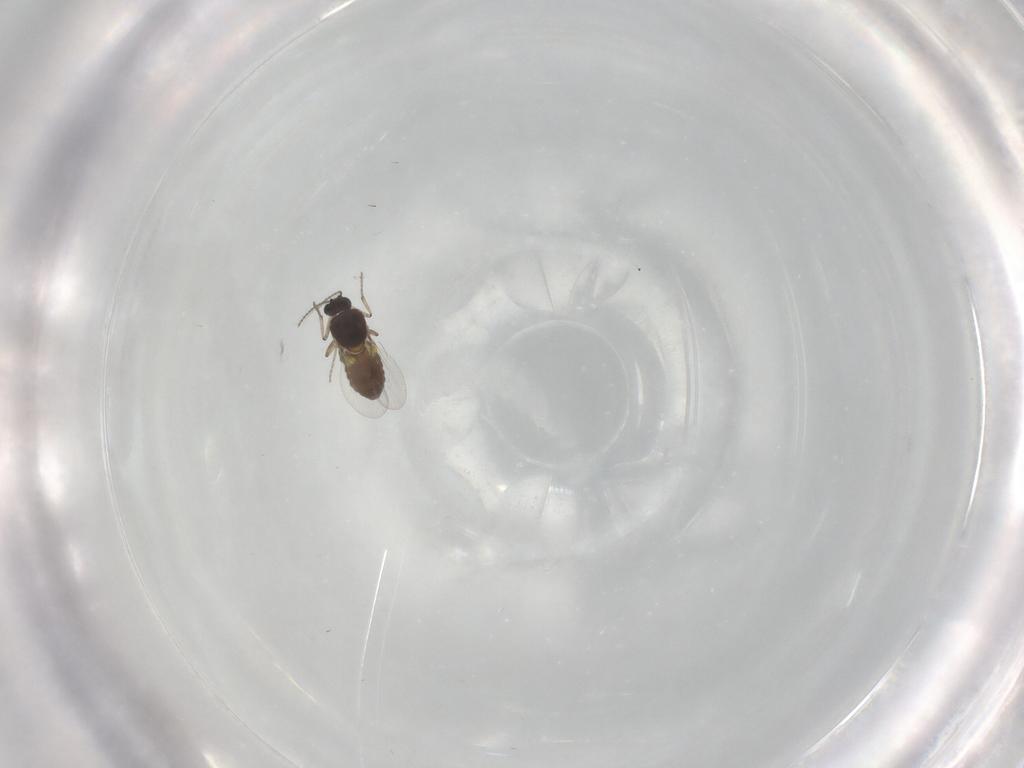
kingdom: Animalia
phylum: Arthropoda
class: Insecta
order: Diptera
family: Ceratopogonidae
